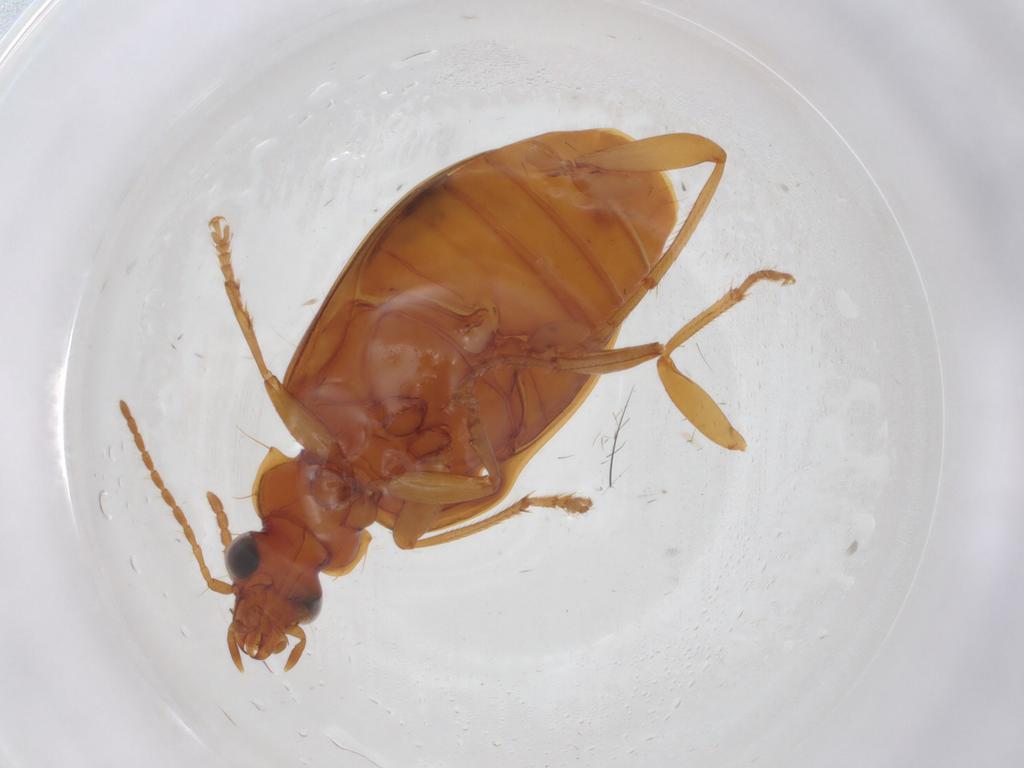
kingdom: Animalia
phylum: Arthropoda
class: Insecta
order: Coleoptera
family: Carabidae
